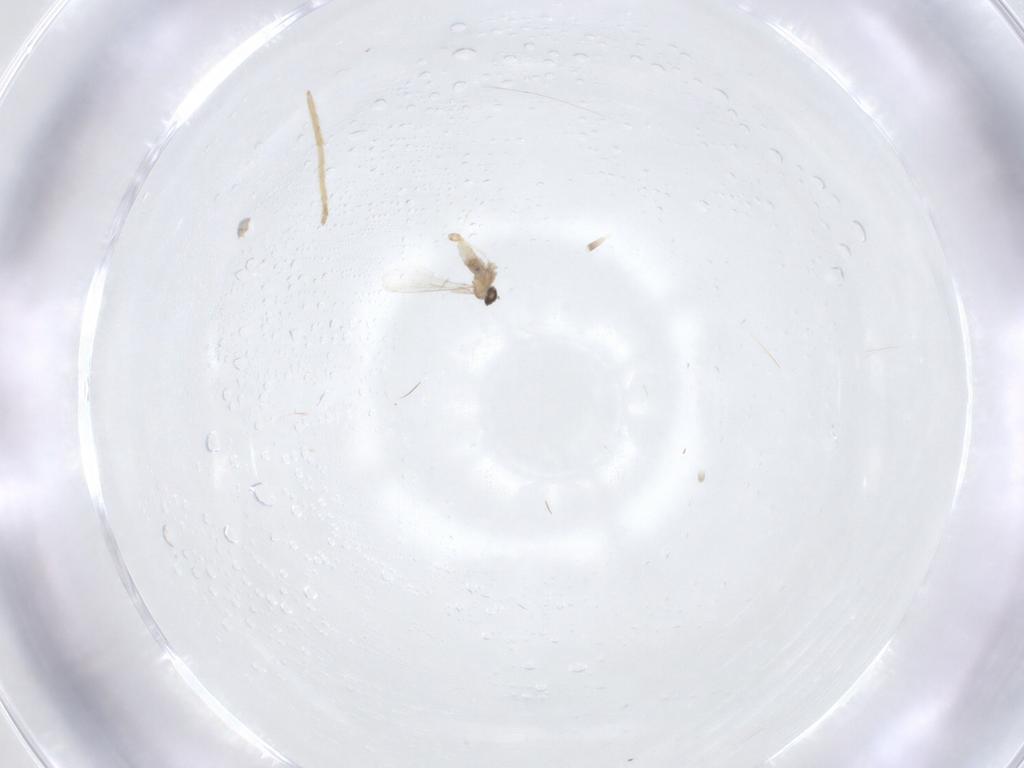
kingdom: Animalia
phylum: Arthropoda
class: Insecta
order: Diptera
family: Cecidomyiidae
